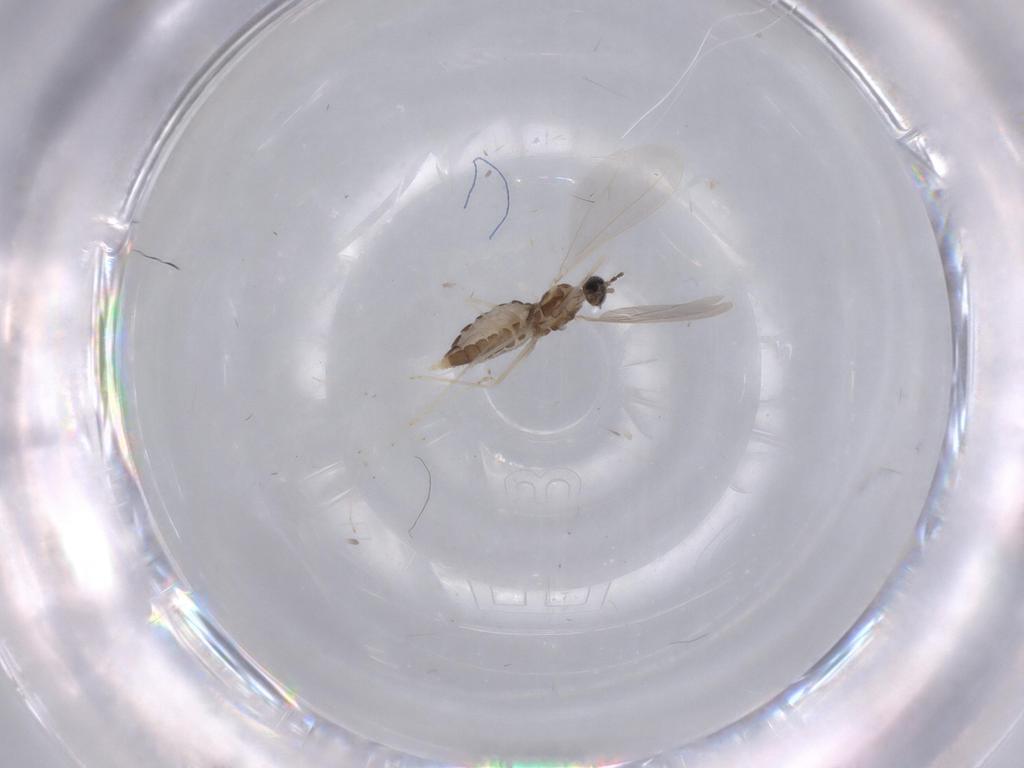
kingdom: Animalia
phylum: Arthropoda
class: Insecta
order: Diptera
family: Cecidomyiidae
